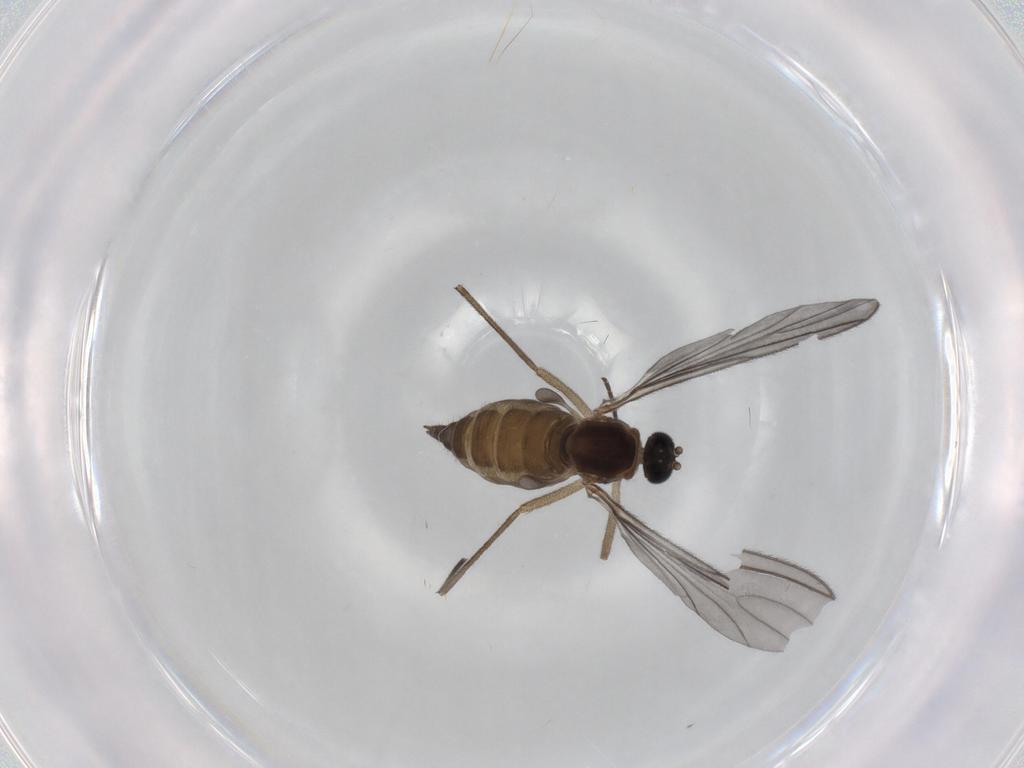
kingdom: Animalia
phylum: Arthropoda
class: Insecta
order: Diptera
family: Sciaridae
